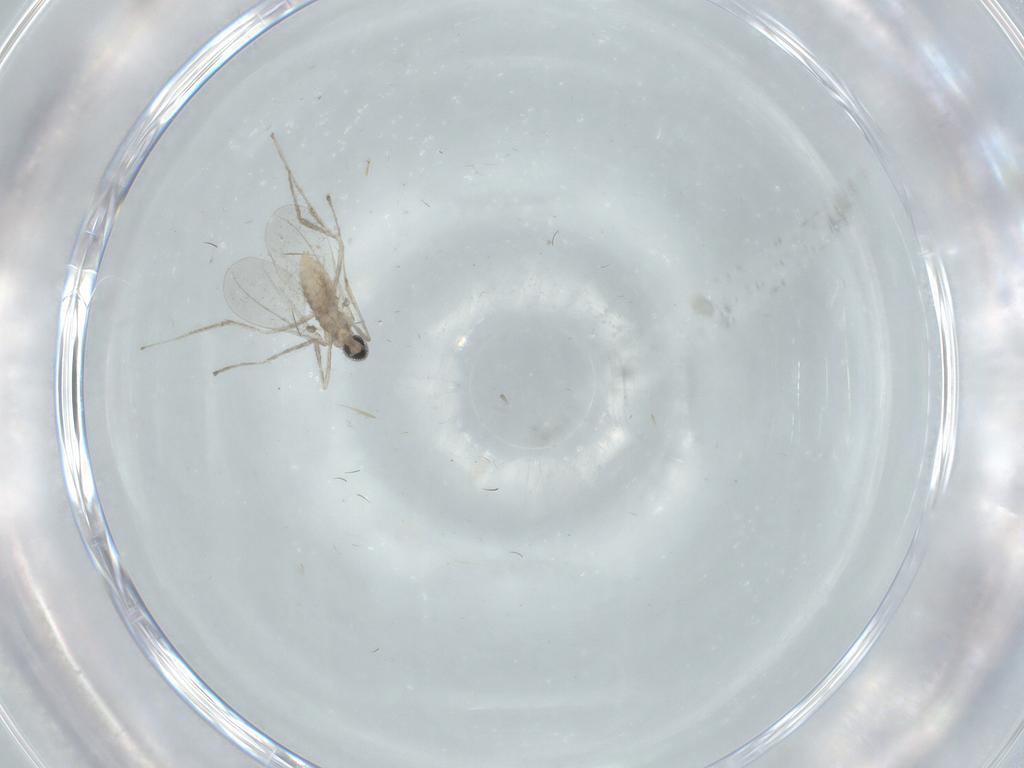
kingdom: Animalia
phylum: Arthropoda
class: Insecta
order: Diptera
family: Cecidomyiidae
